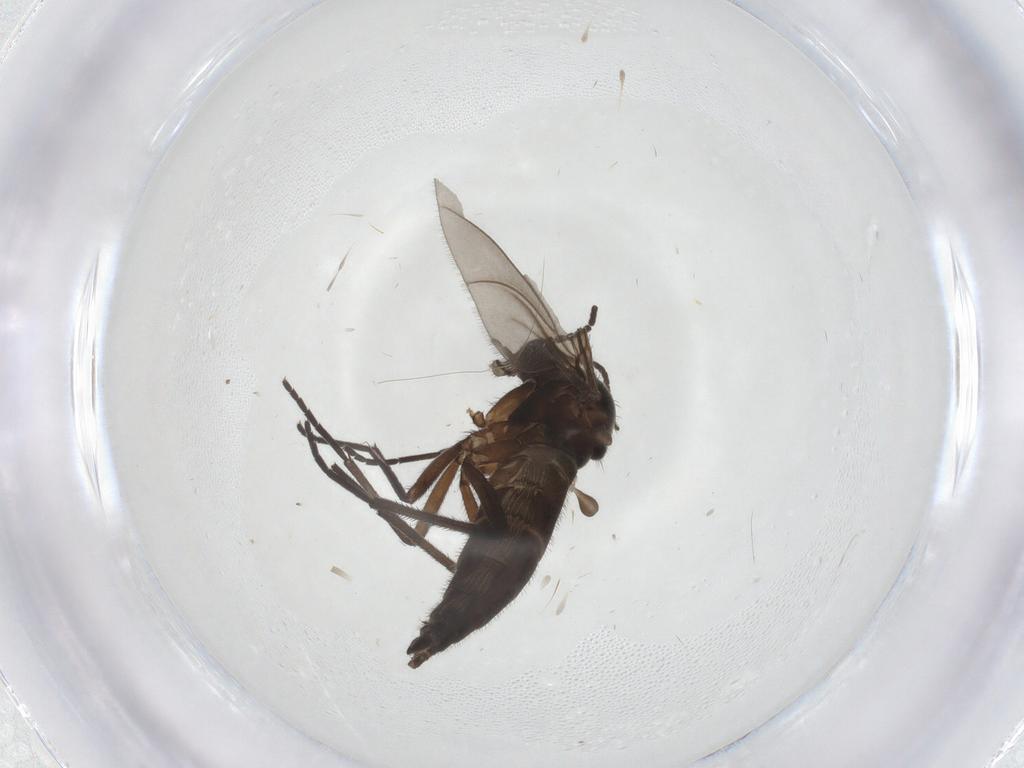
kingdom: Animalia
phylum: Arthropoda
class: Insecta
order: Diptera
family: Cecidomyiidae
